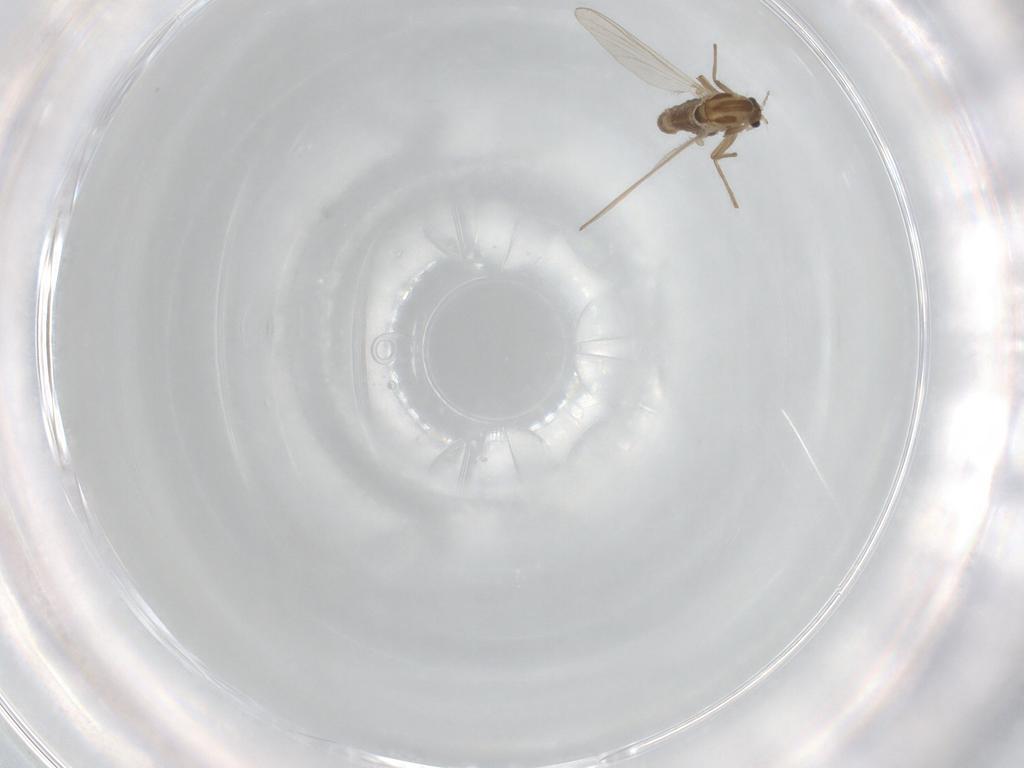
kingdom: Animalia
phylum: Arthropoda
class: Insecta
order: Diptera
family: Chironomidae
